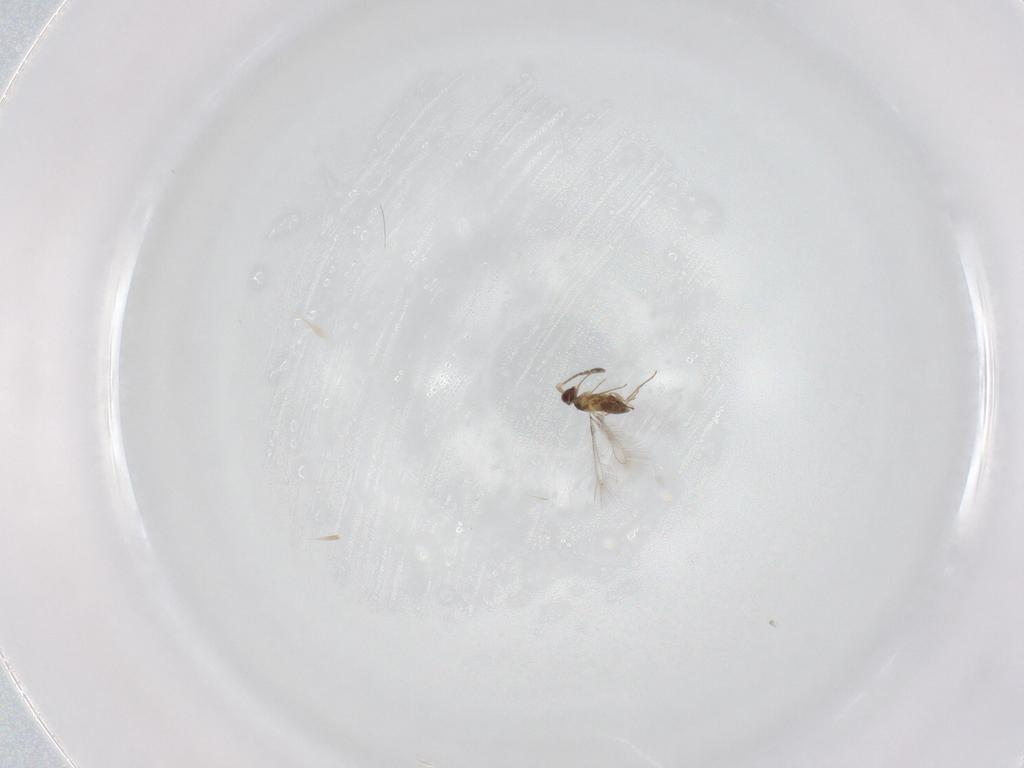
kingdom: Animalia
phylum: Arthropoda
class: Insecta
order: Hymenoptera
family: Mymaridae
